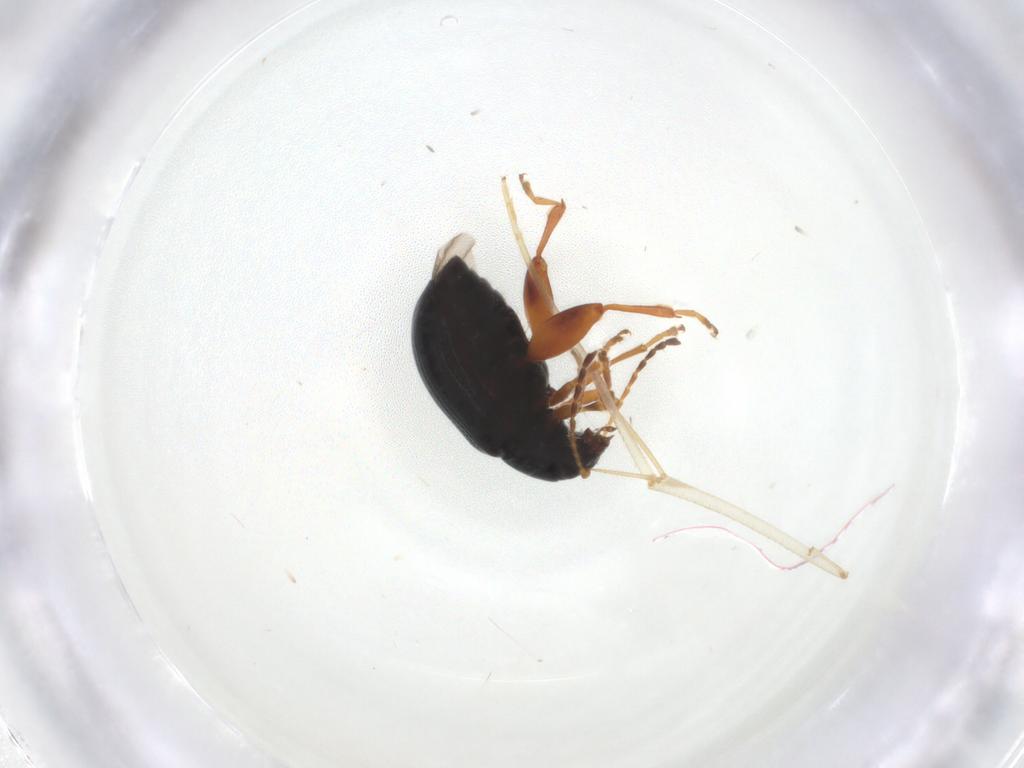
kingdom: Animalia
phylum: Arthropoda
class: Insecta
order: Coleoptera
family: Chrysomelidae
